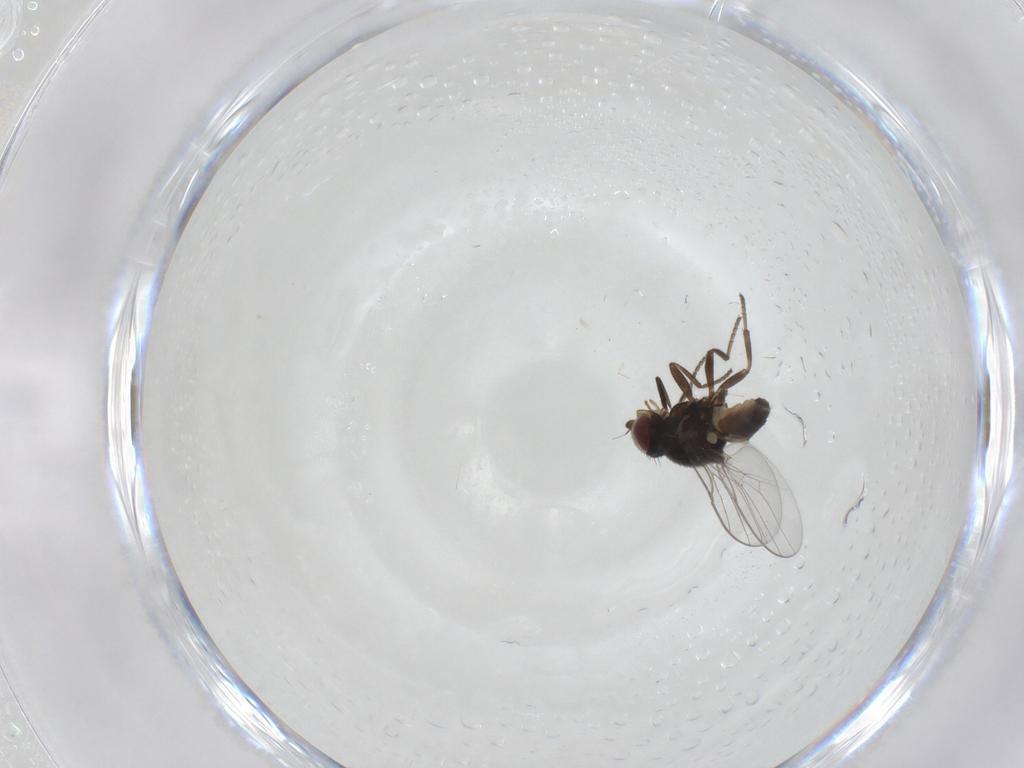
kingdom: Animalia
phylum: Arthropoda
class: Insecta
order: Diptera
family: Chloropidae
